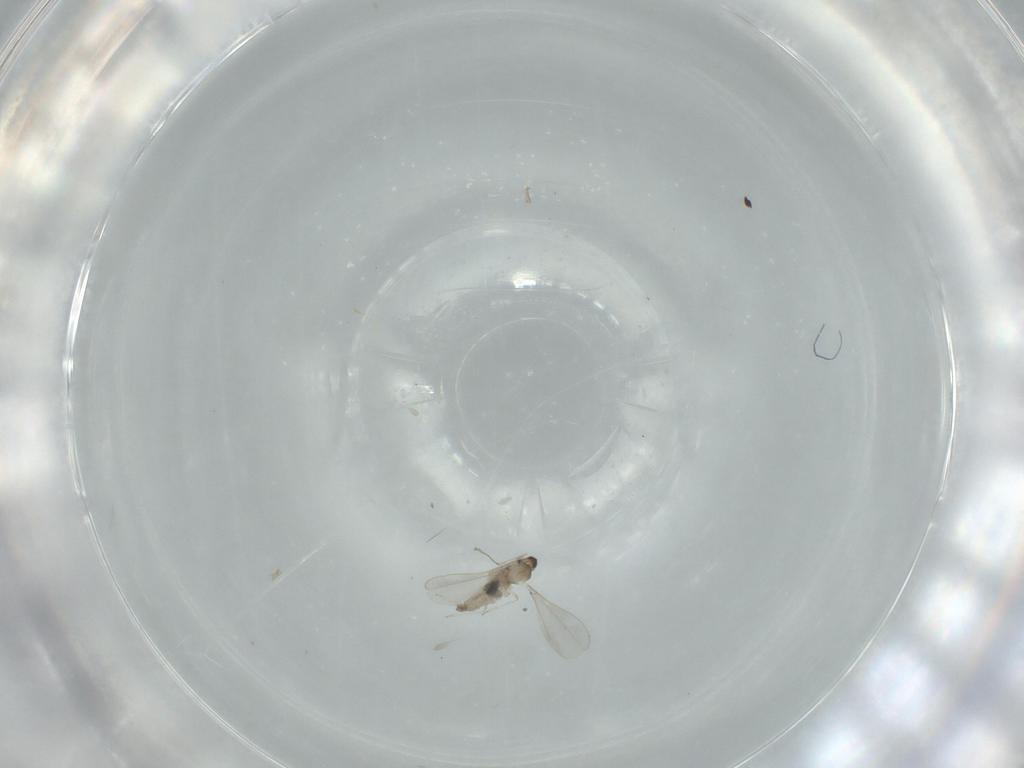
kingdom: Animalia
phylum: Arthropoda
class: Insecta
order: Diptera
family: Cecidomyiidae
